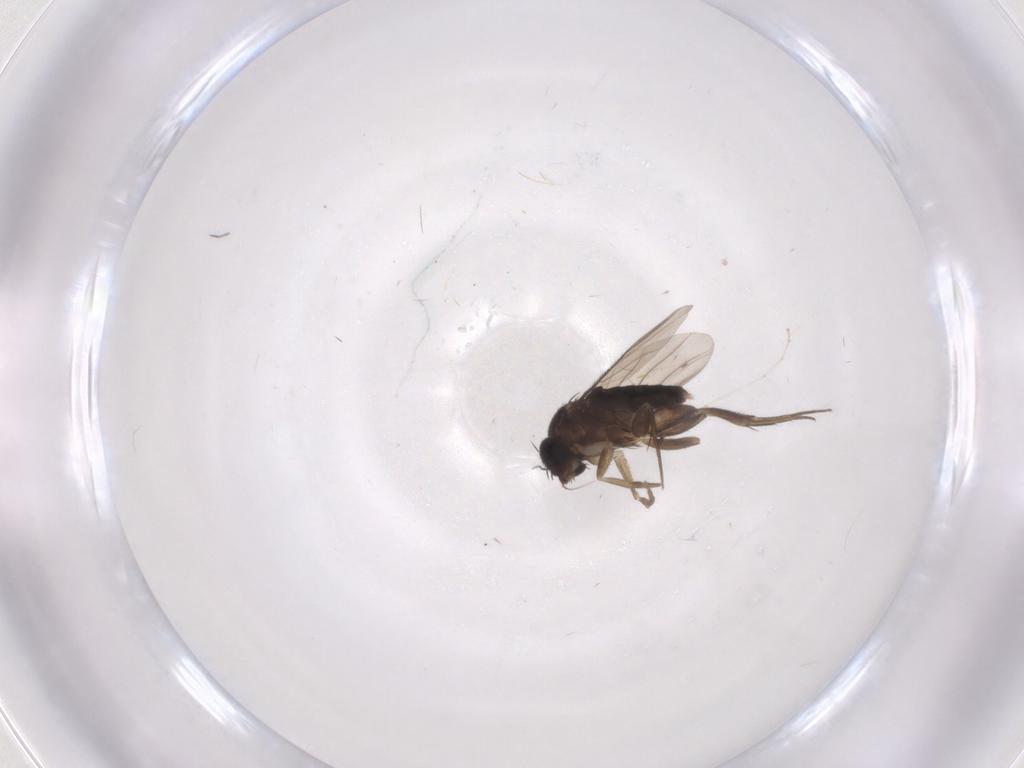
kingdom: Animalia
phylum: Arthropoda
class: Insecta
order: Diptera
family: Phoridae
